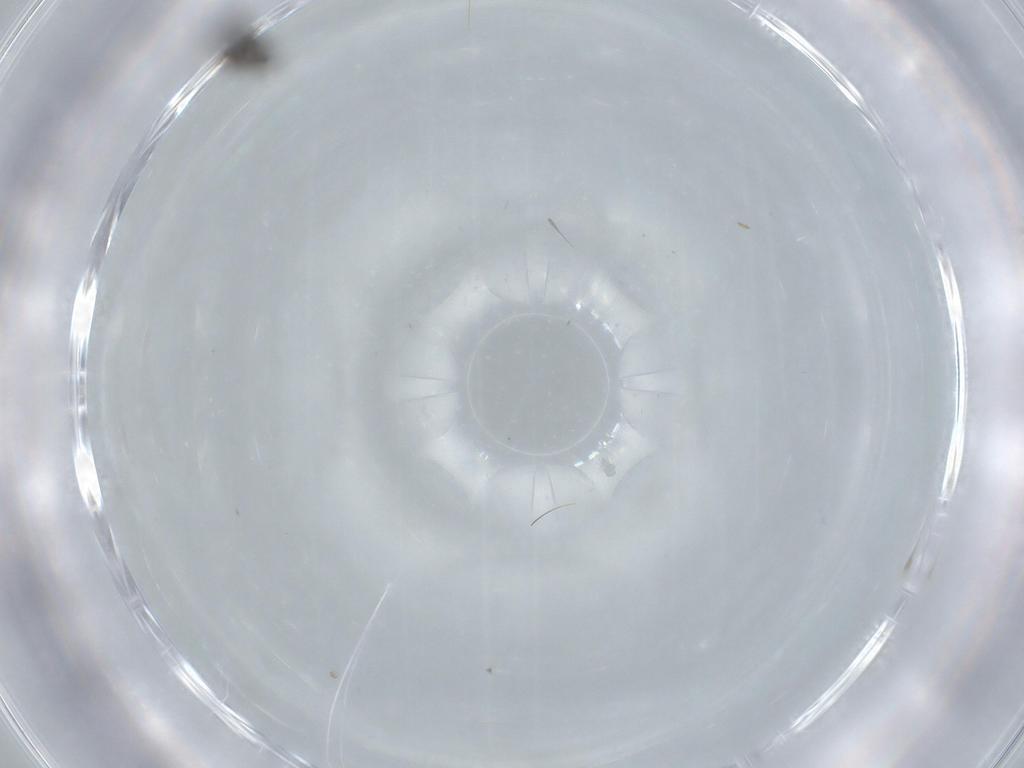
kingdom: Animalia
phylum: Arthropoda
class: Insecta
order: Hymenoptera
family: Platygastridae
